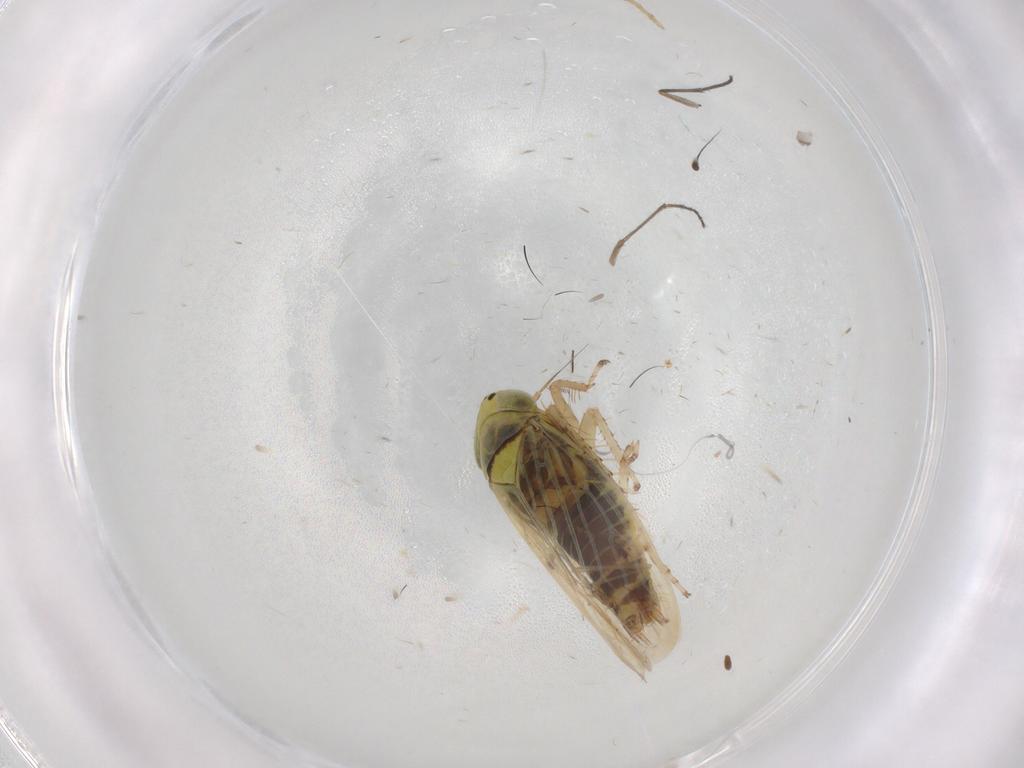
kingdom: Animalia
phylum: Arthropoda
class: Insecta
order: Hemiptera
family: Cicadellidae
